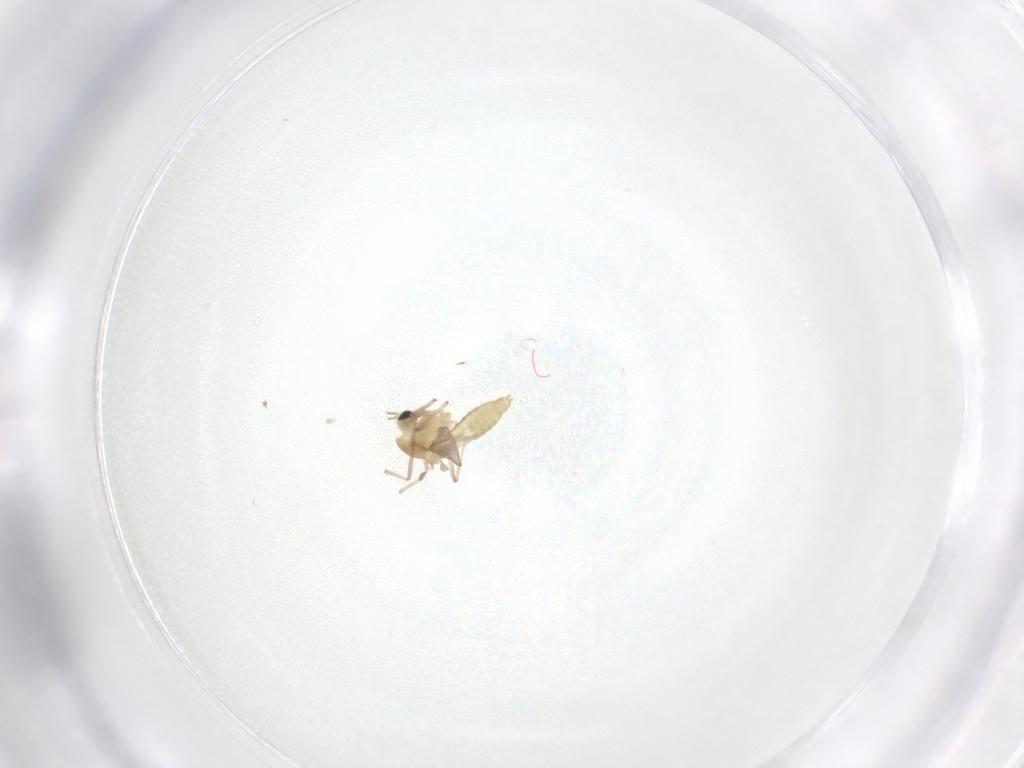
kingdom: Animalia
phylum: Arthropoda
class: Insecta
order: Diptera
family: Chironomidae
